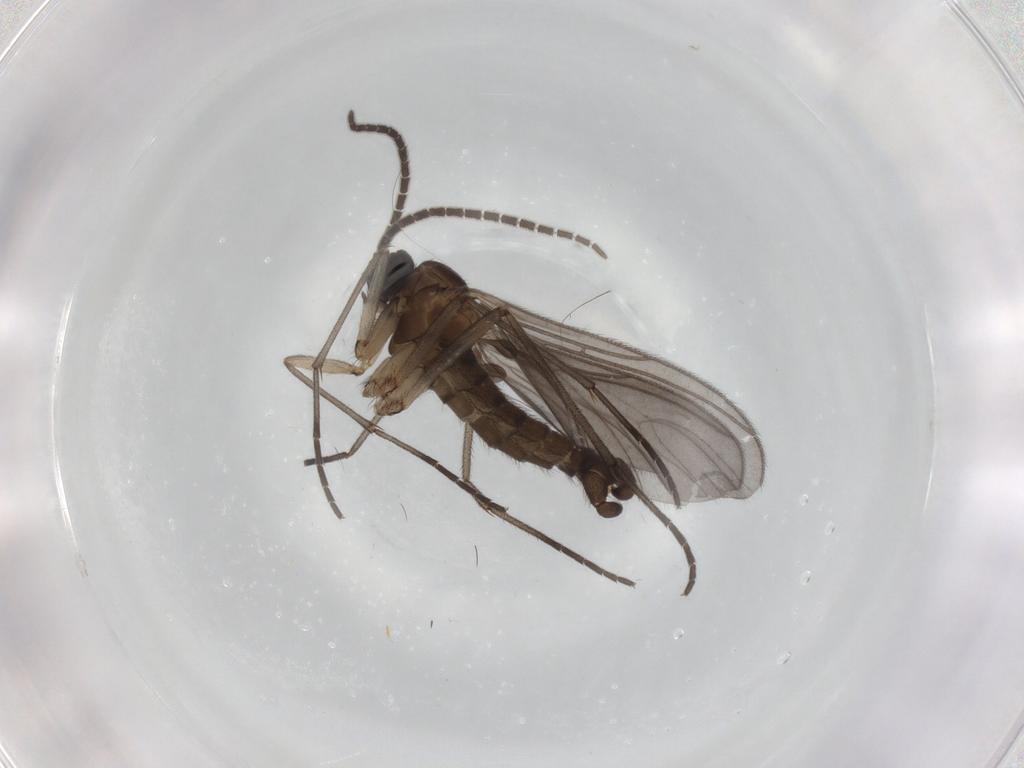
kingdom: Animalia
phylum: Arthropoda
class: Insecta
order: Diptera
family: Sciaridae
